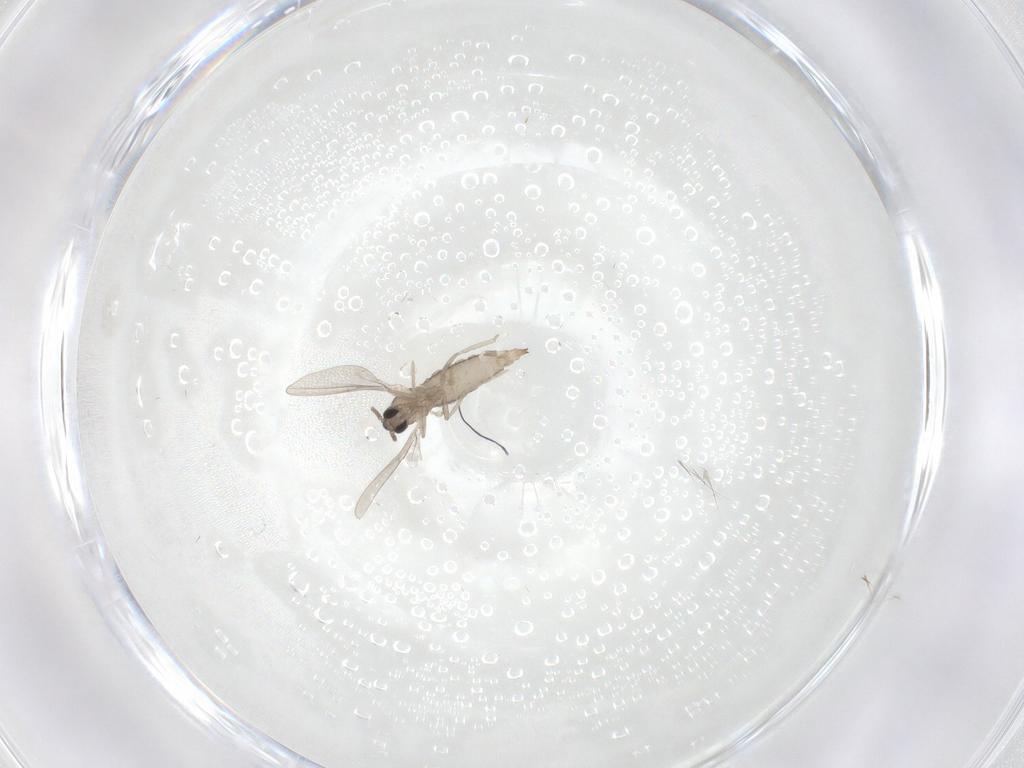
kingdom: Animalia
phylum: Arthropoda
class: Insecta
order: Diptera
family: Cecidomyiidae
